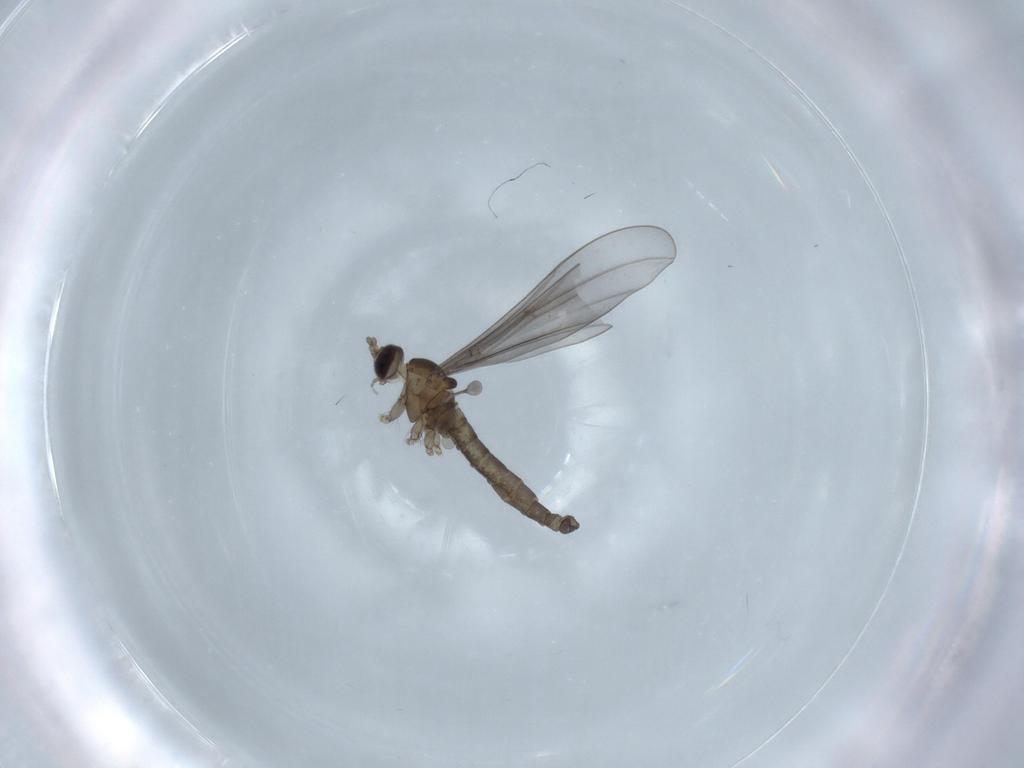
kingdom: Animalia
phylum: Arthropoda
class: Insecta
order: Diptera
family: Cecidomyiidae
